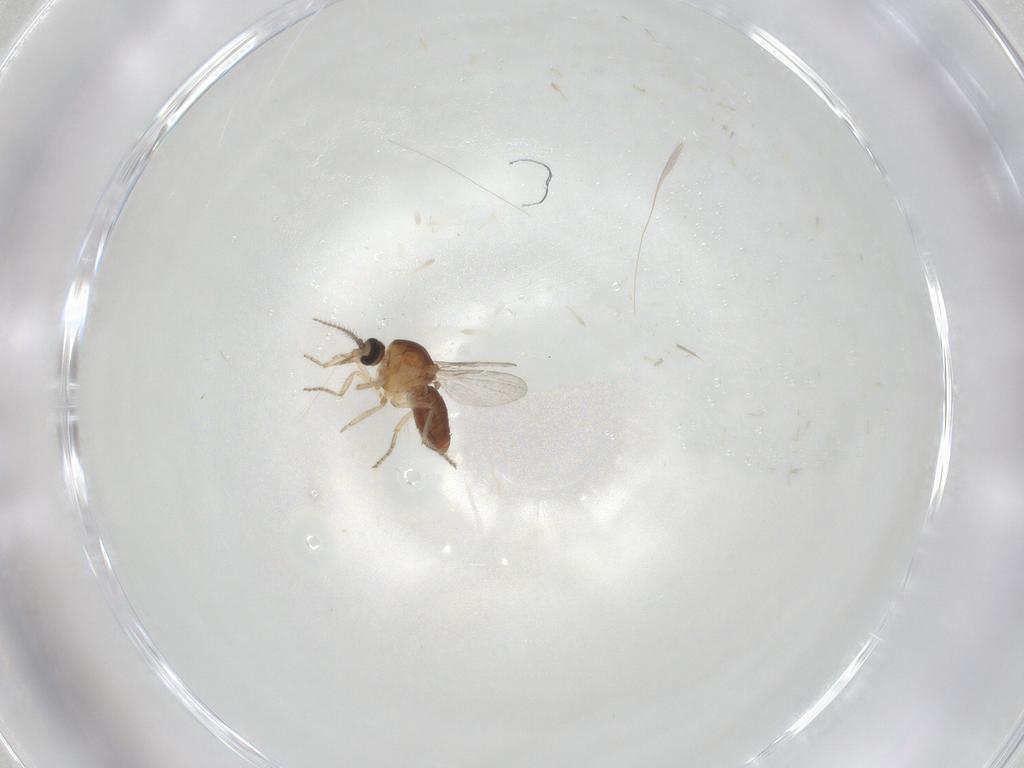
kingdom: Animalia
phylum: Arthropoda
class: Insecta
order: Diptera
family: Ceratopogonidae
